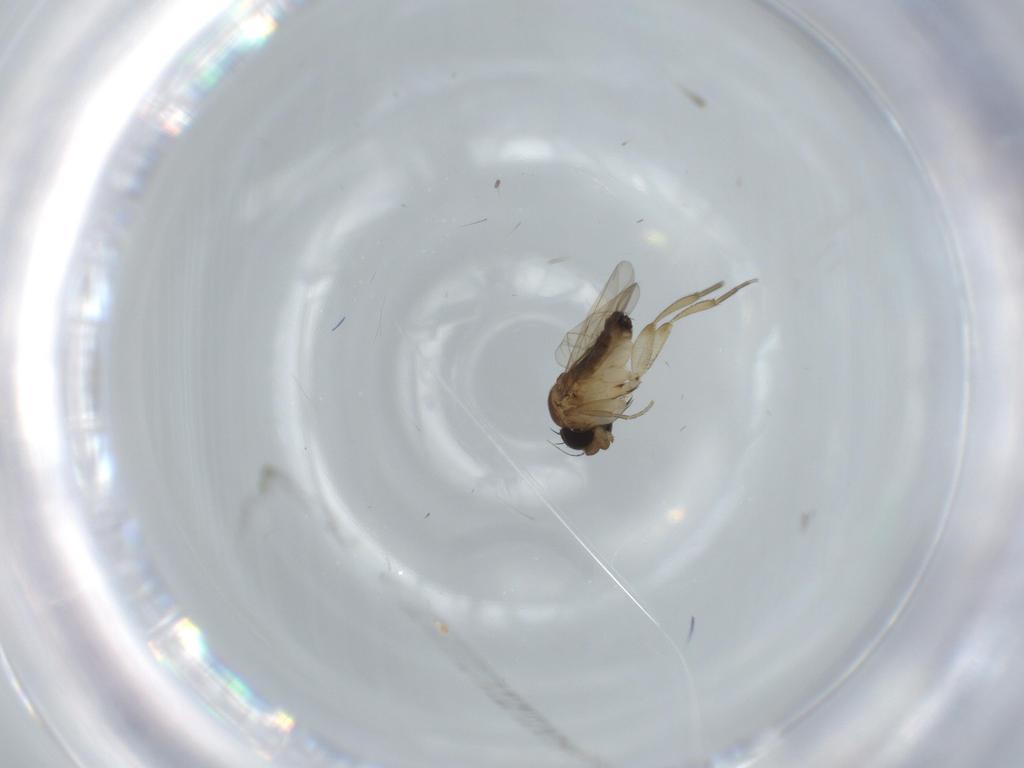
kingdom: Animalia
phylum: Arthropoda
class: Insecta
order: Diptera
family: Phoridae
